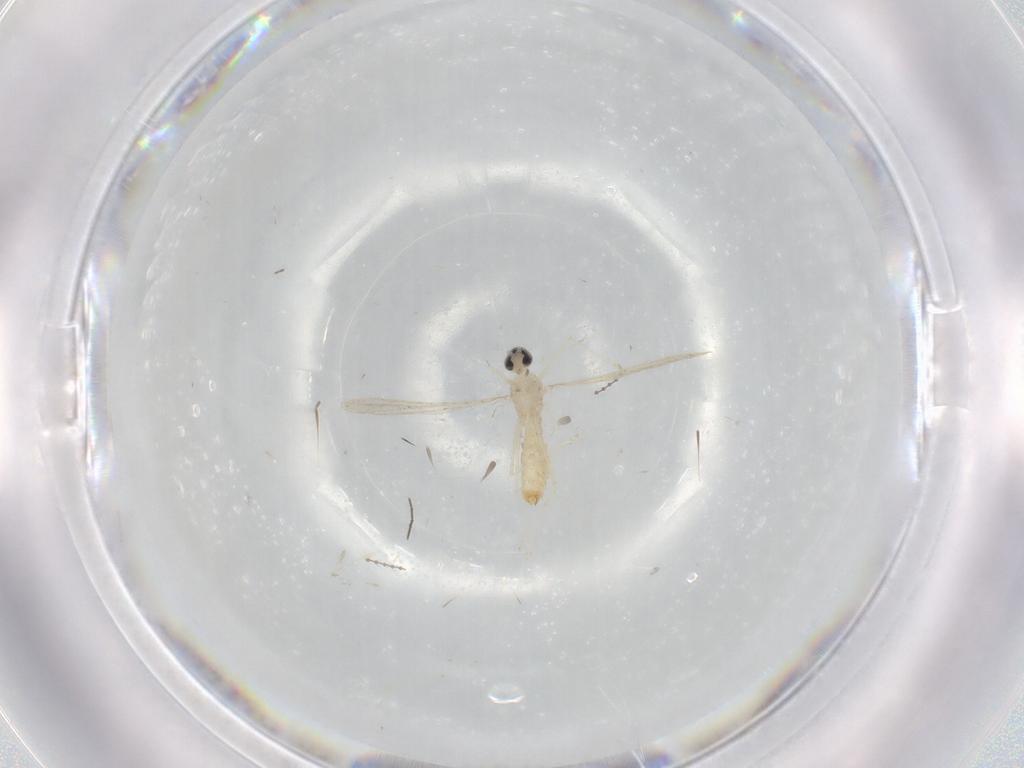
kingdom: Animalia
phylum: Arthropoda
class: Insecta
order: Diptera
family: Cecidomyiidae
